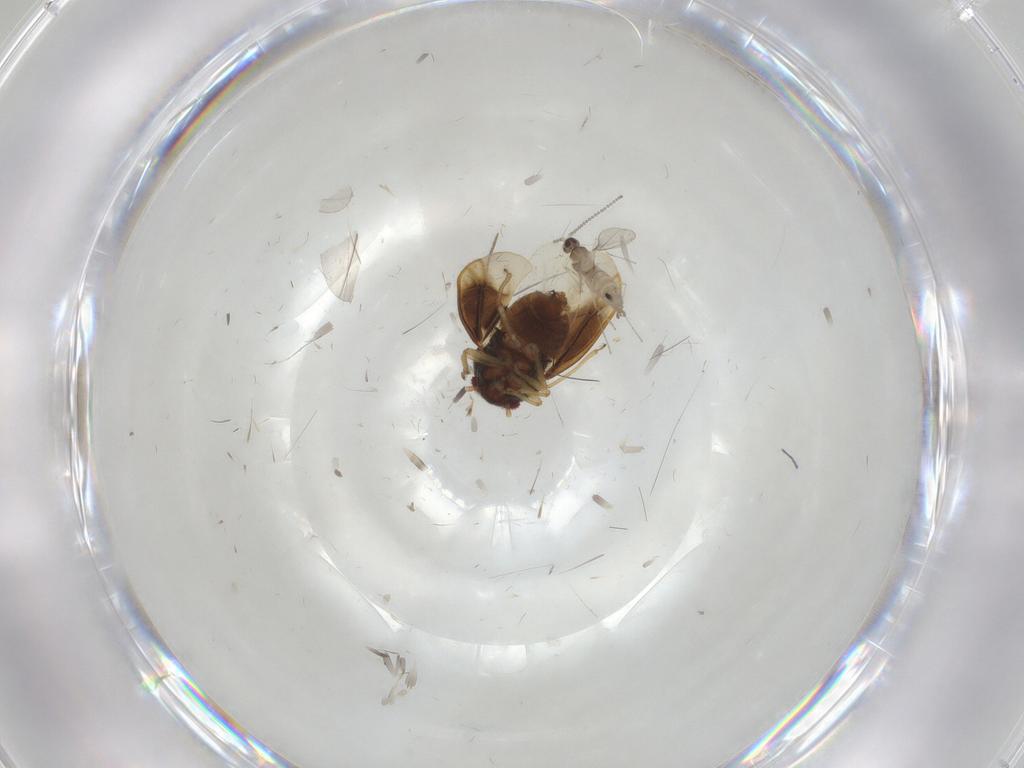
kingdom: Animalia
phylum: Arthropoda
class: Insecta
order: Hemiptera
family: Schizopteridae
